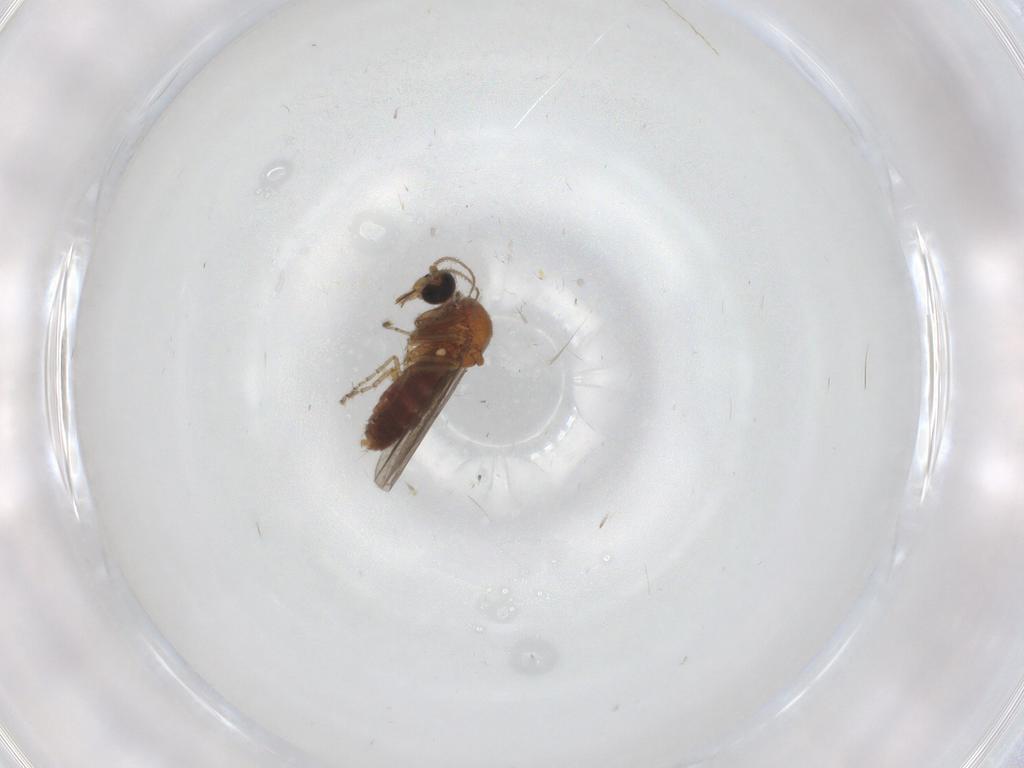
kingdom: Animalia
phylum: Arthropoda
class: Insecta
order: Diptera
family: Ceratopogonidae
